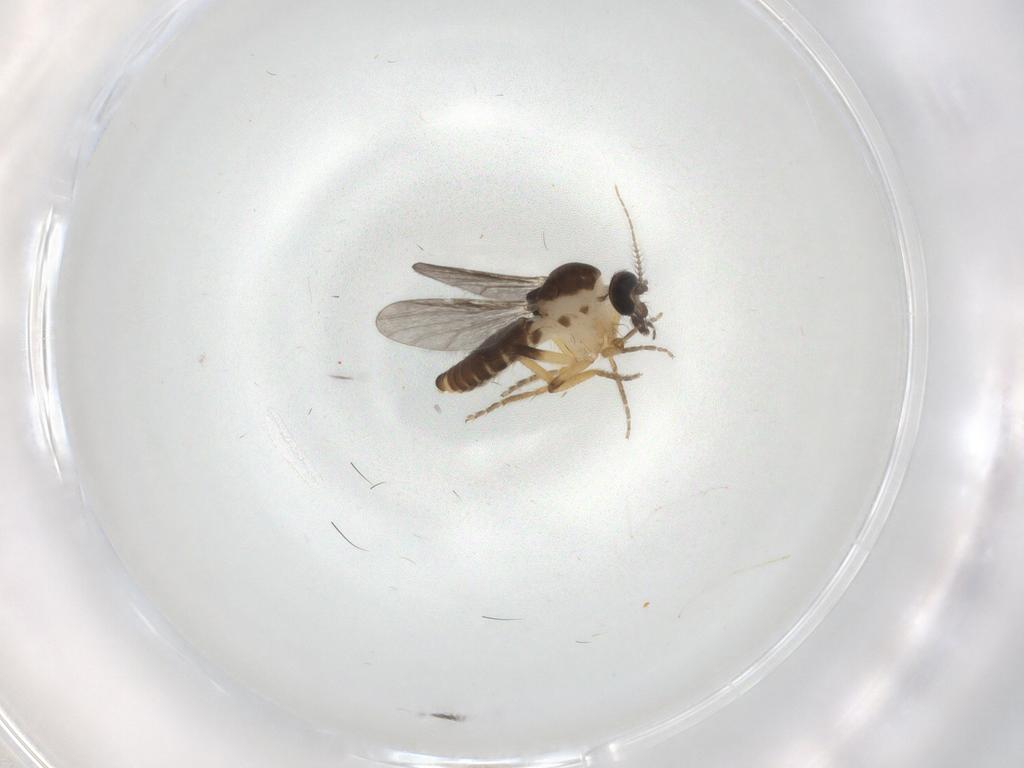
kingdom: Animalia
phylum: Arthropoda
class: Insecta
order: Diptera
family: Ceratopogonidae
